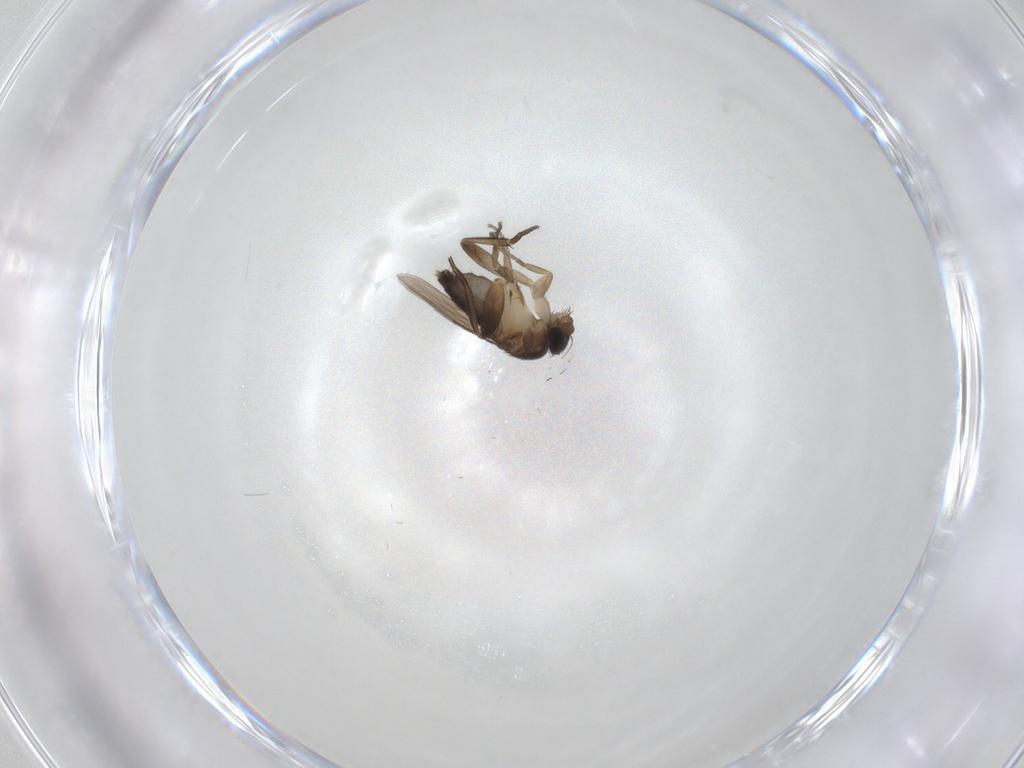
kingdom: Animalia
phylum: Arthropoda
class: Insecta
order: Diptera
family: Phoridae
